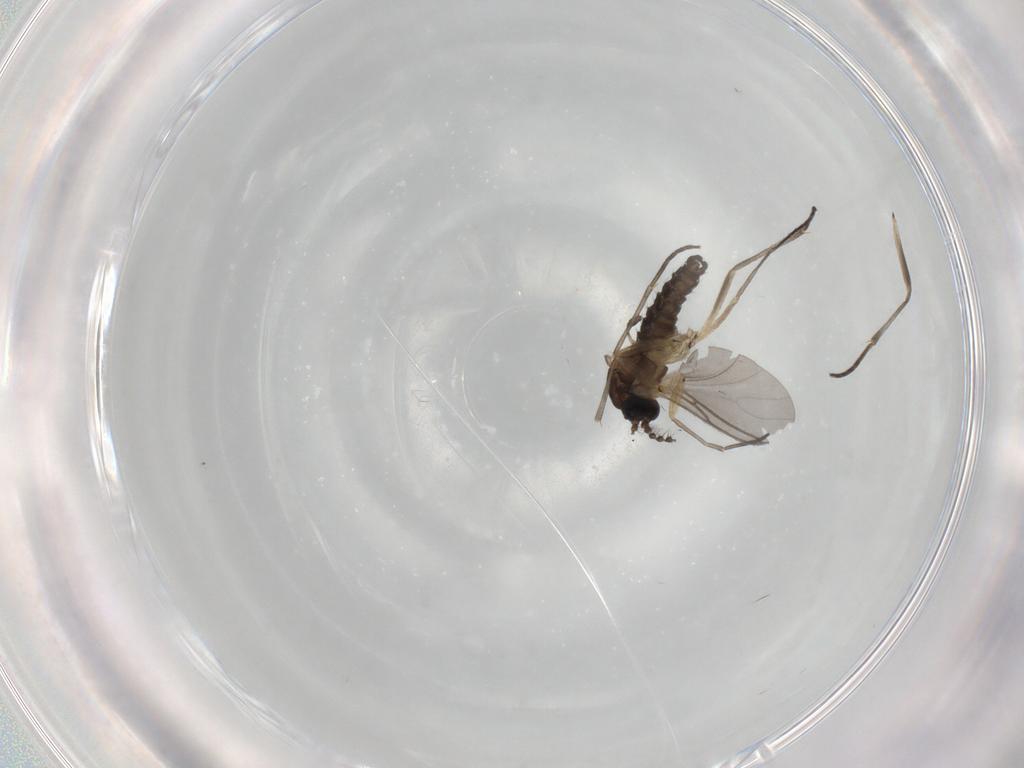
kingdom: Animalia
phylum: Arthropoda
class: Insecta
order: Diptera
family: Sciaridae
